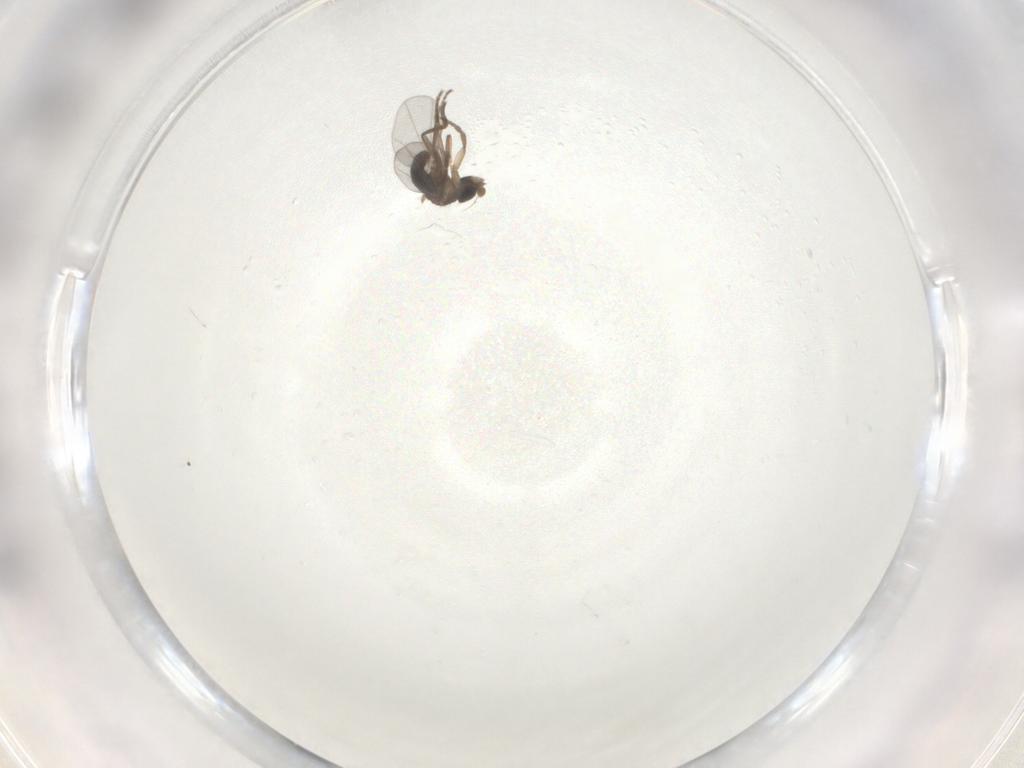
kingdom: Animalia
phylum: Arthropoda
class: Insecta
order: Diptera
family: Phoridae
